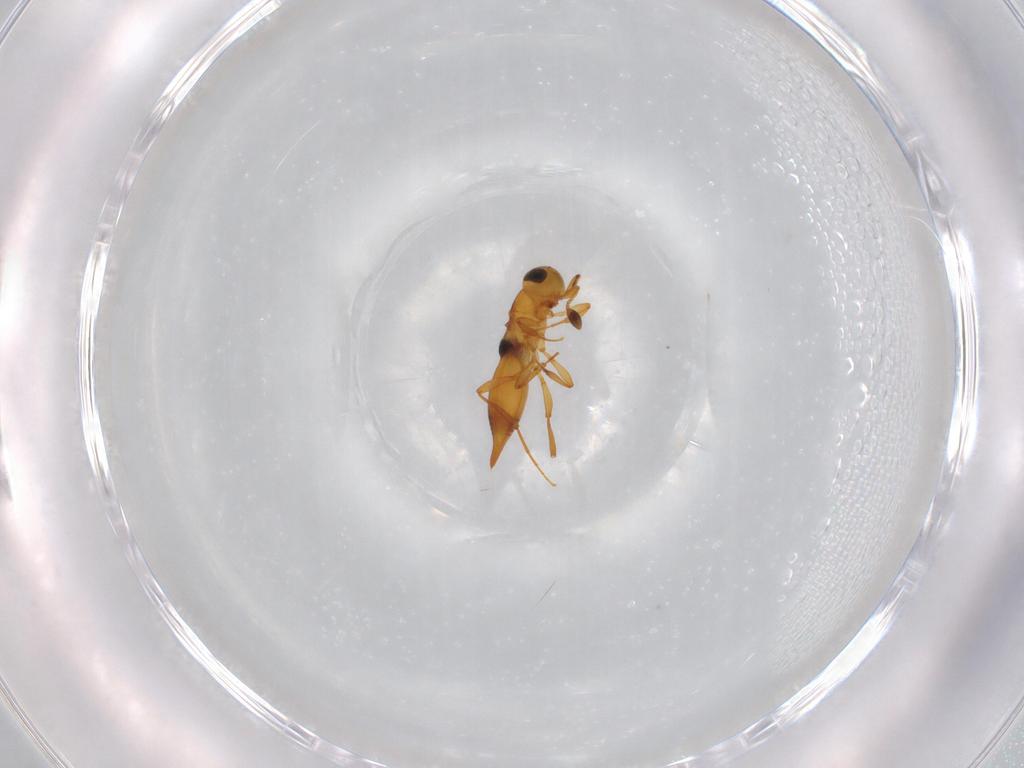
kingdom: Animalia
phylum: Arthropoda
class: Insecta
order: Hymenoptera
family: Platygastridae
